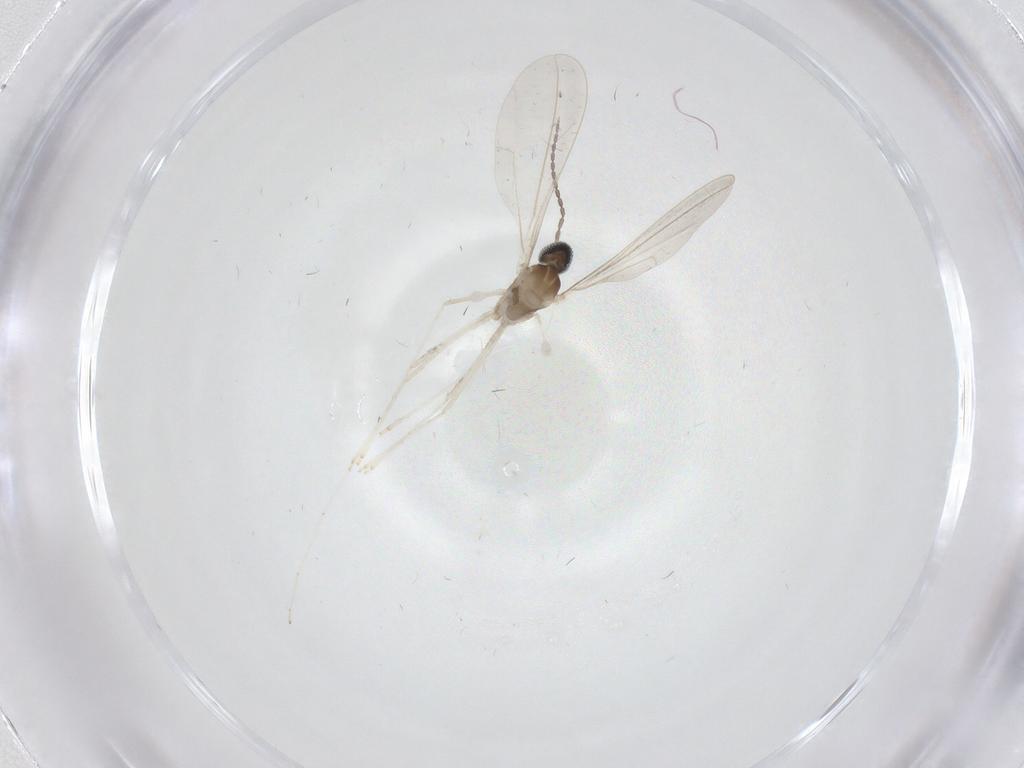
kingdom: Animalia
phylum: Arthropoda
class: Insecta
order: Diptera
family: Cecidomyiidae
